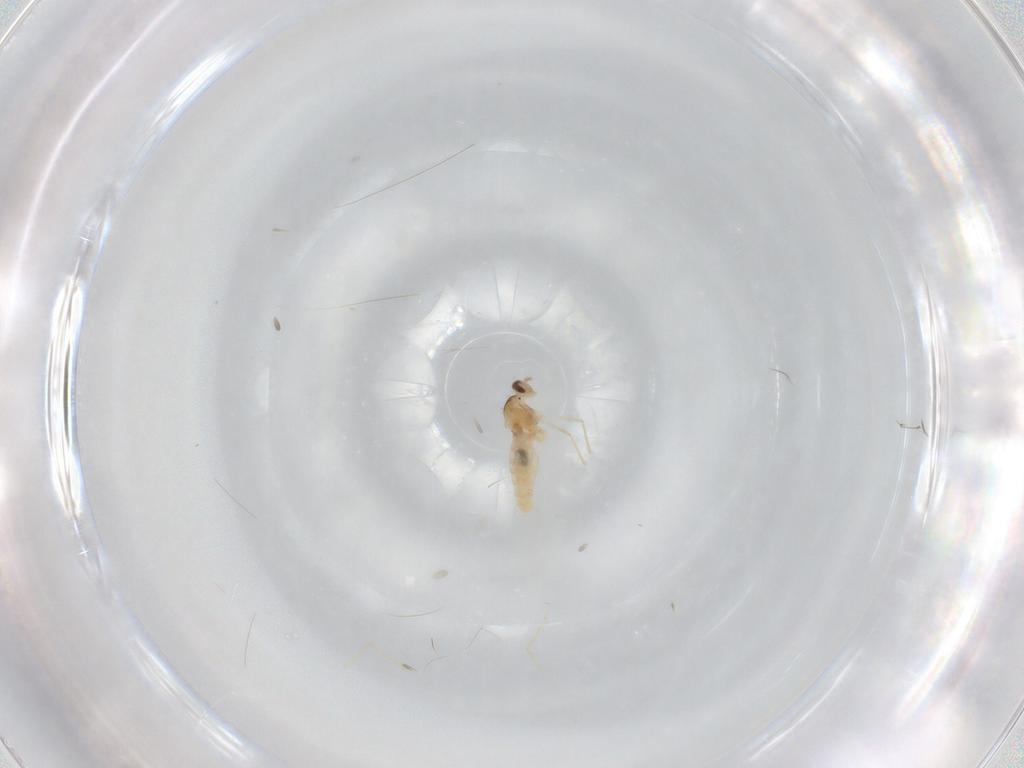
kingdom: Animalia
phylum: Arthropoda
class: Insecta
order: Diptera
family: Cecidomyiidae
